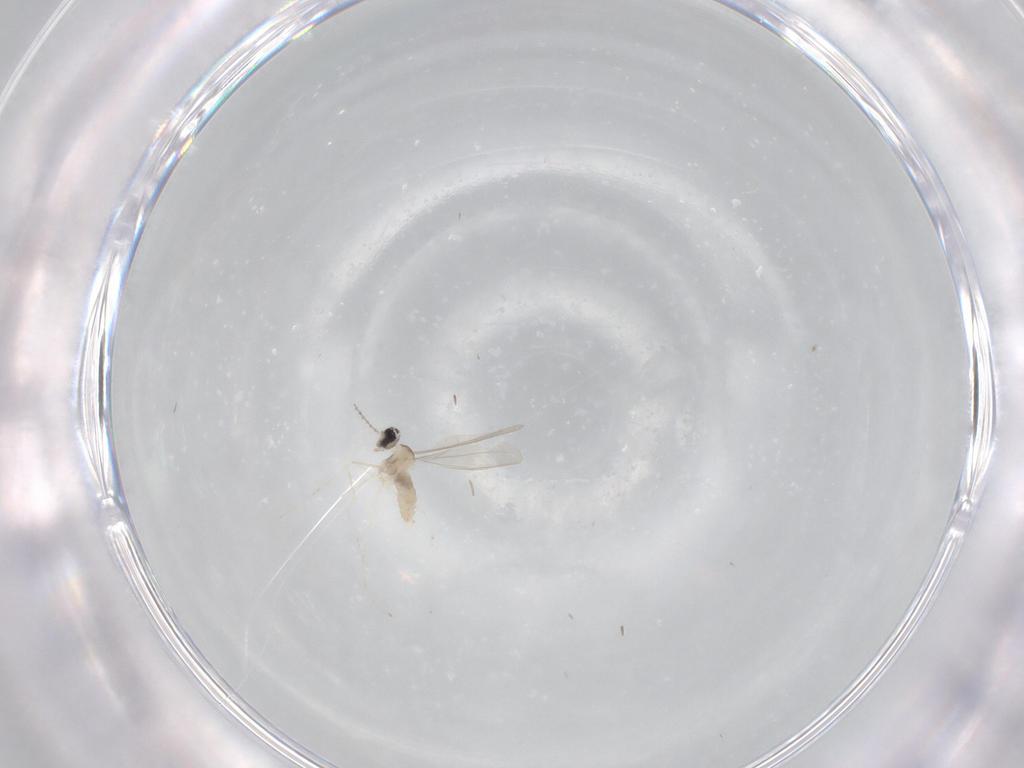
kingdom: Animalia
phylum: Arthropoda
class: Insecta
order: Diptera
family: Cecidomyiidae
